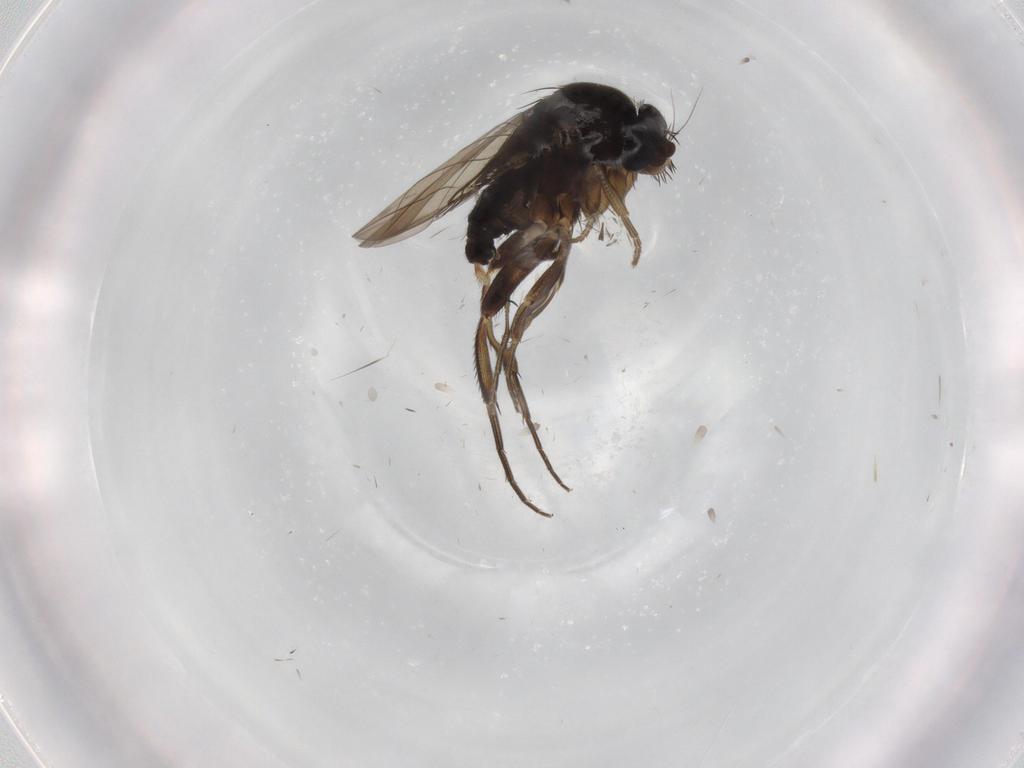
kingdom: Animalia
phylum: Arthropoda
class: Insecta
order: Diptera
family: Phoridae
